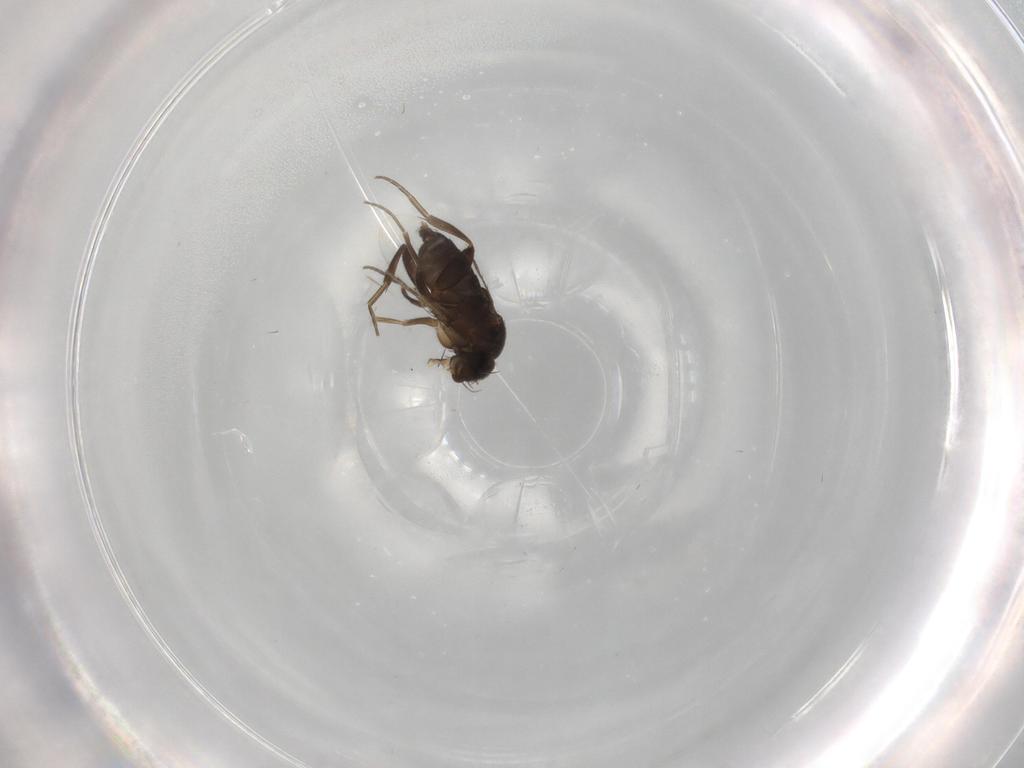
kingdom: Animalia
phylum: Arthropoda
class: Insecta
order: Diptera
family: Phoridae
